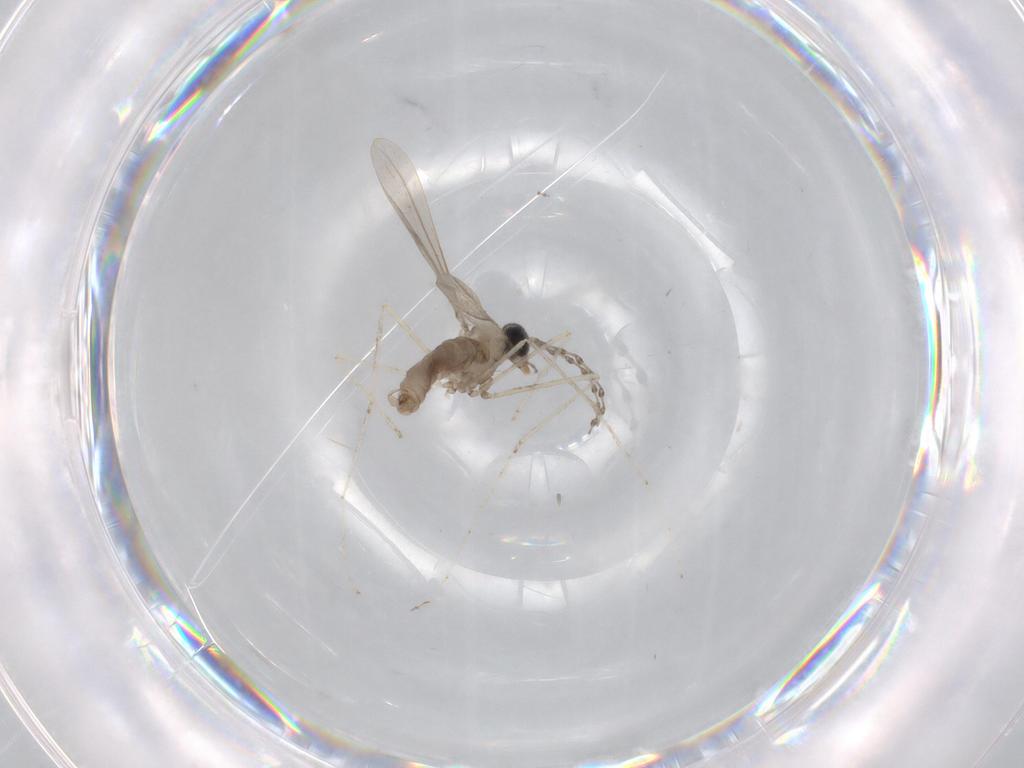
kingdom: Animalia
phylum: Arthropoda
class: Insecta
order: Diptera
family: Cecidomyiidae
